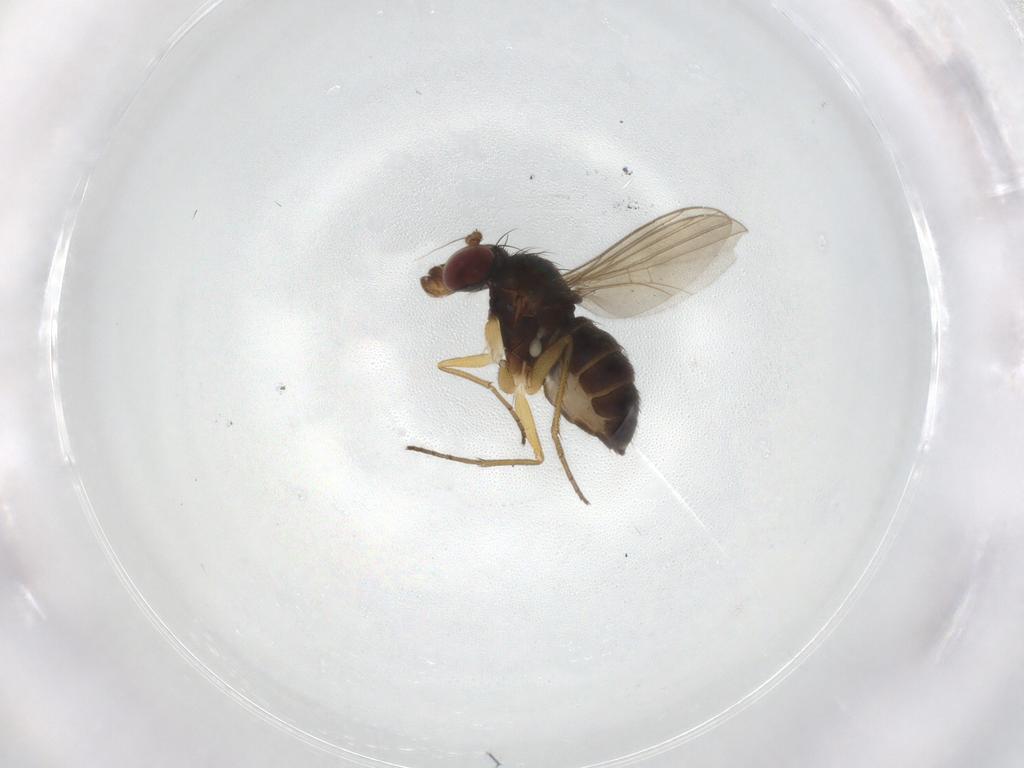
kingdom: Animalia
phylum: Arthropoda
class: Insecta
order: Diptera
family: Dolichopodidae
